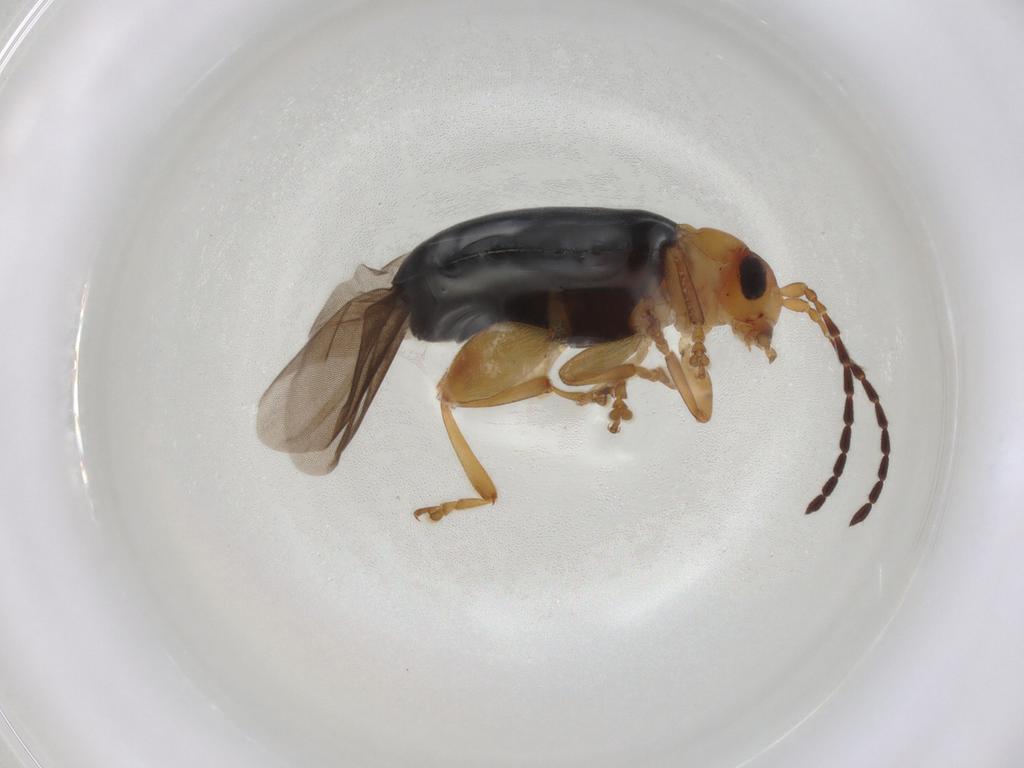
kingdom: Animalia
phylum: Arthropoda
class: Insecta
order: Coleoptera
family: Chrysomelidae
